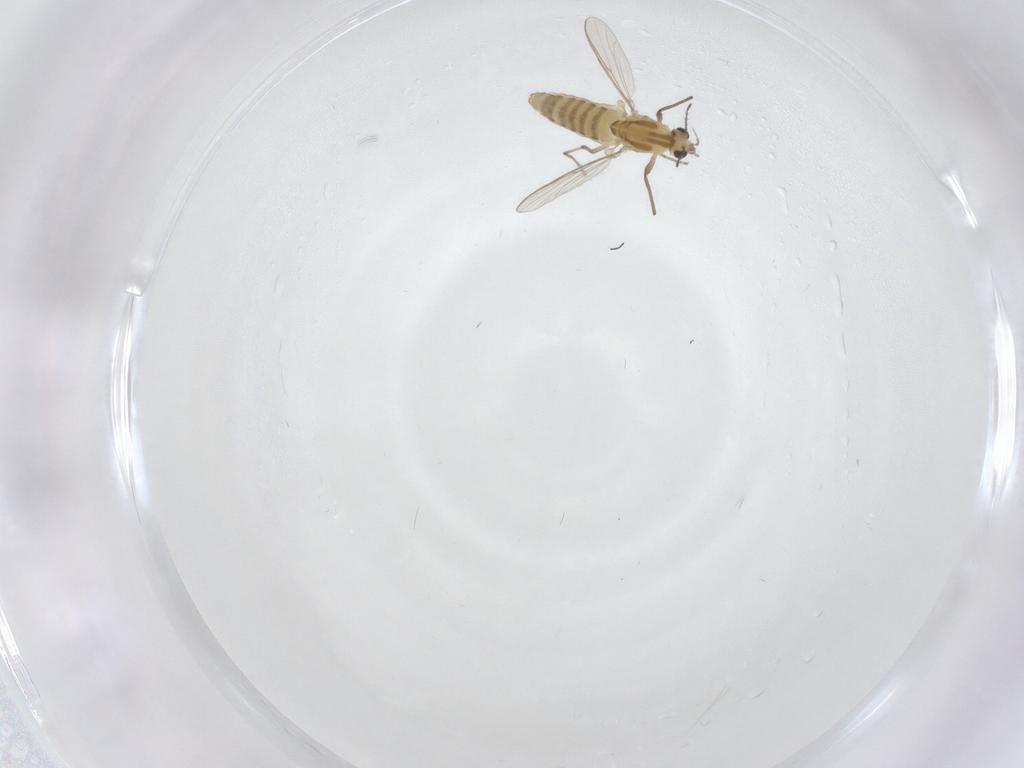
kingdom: Animalia
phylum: Arthropoda
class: Insecta
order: Diptera
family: Chironomidae
